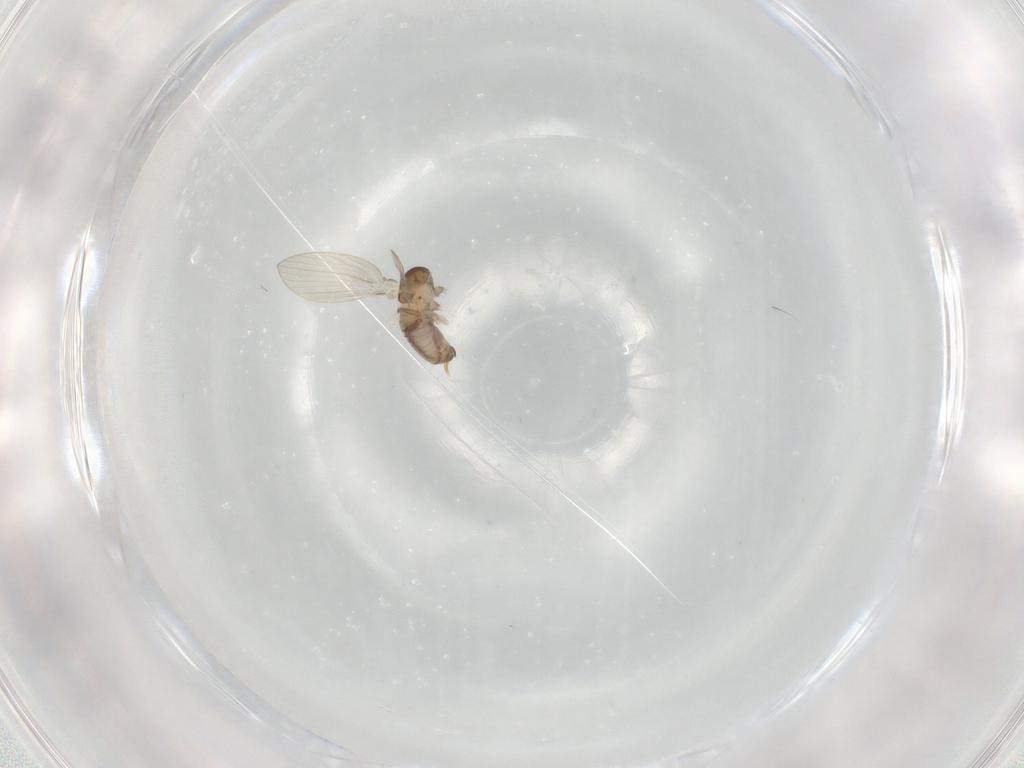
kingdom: Animalia
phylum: Arthropoda
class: Insecta
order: Diptera
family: Psychodidae
